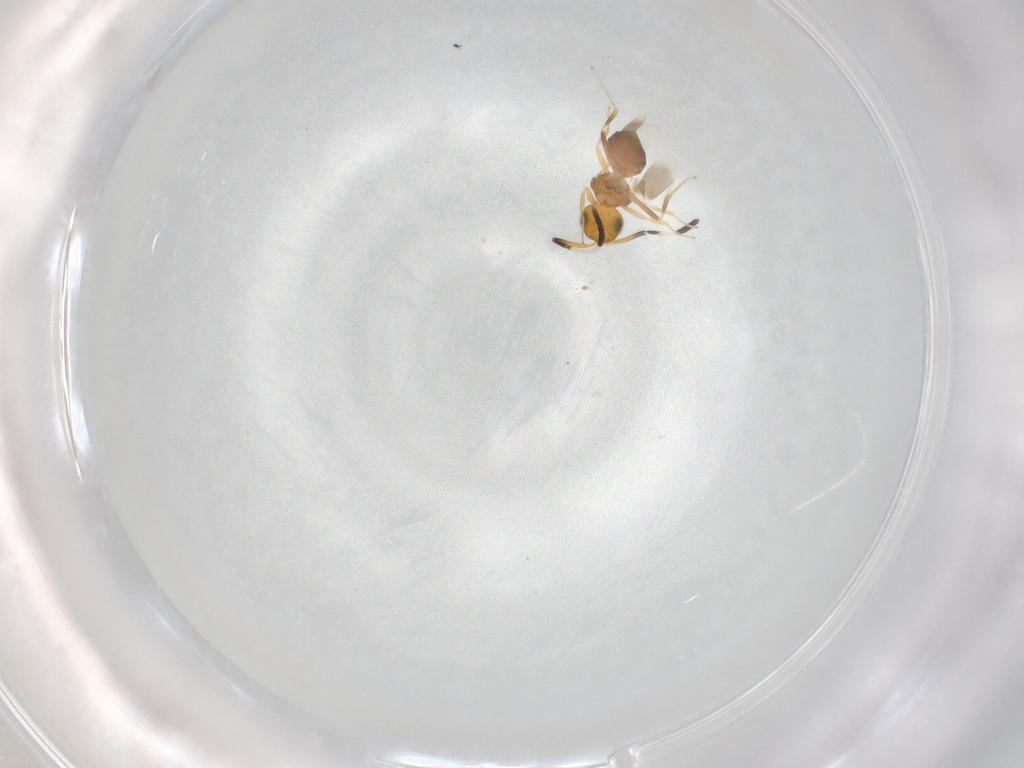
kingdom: Animalia
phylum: Arthropoda
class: Insecta
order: Hymenoptera
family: Scelionidae
